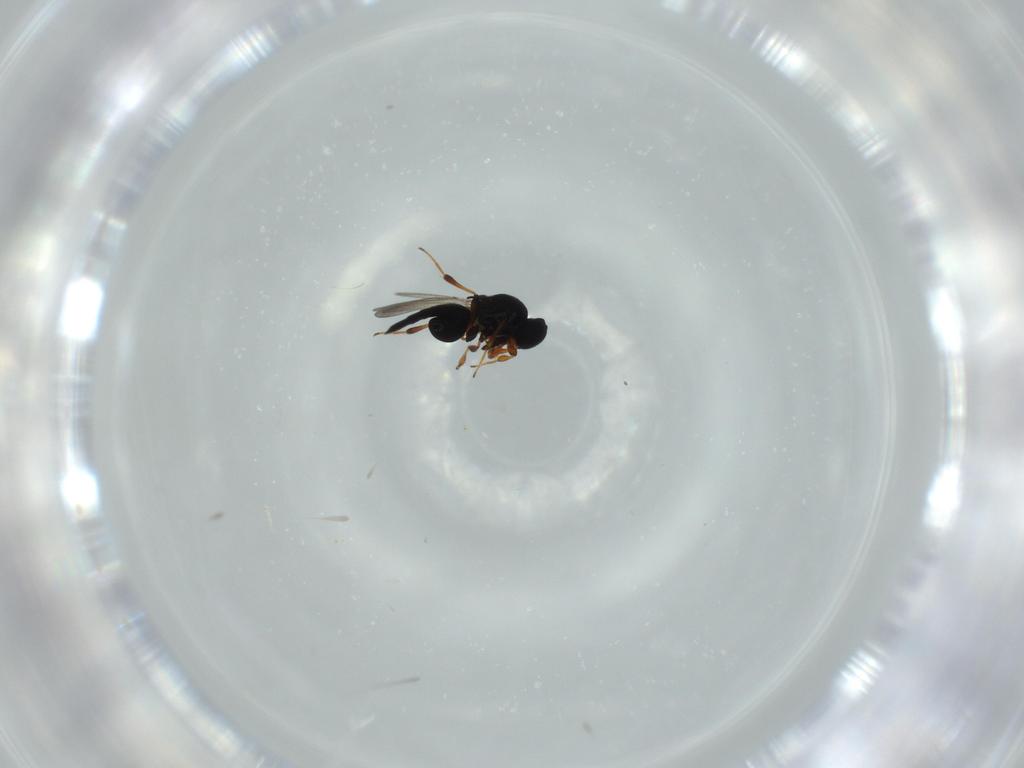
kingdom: Animalia
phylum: Arthropoda
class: Insecta
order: Hymenoptera
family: Platygastridae
